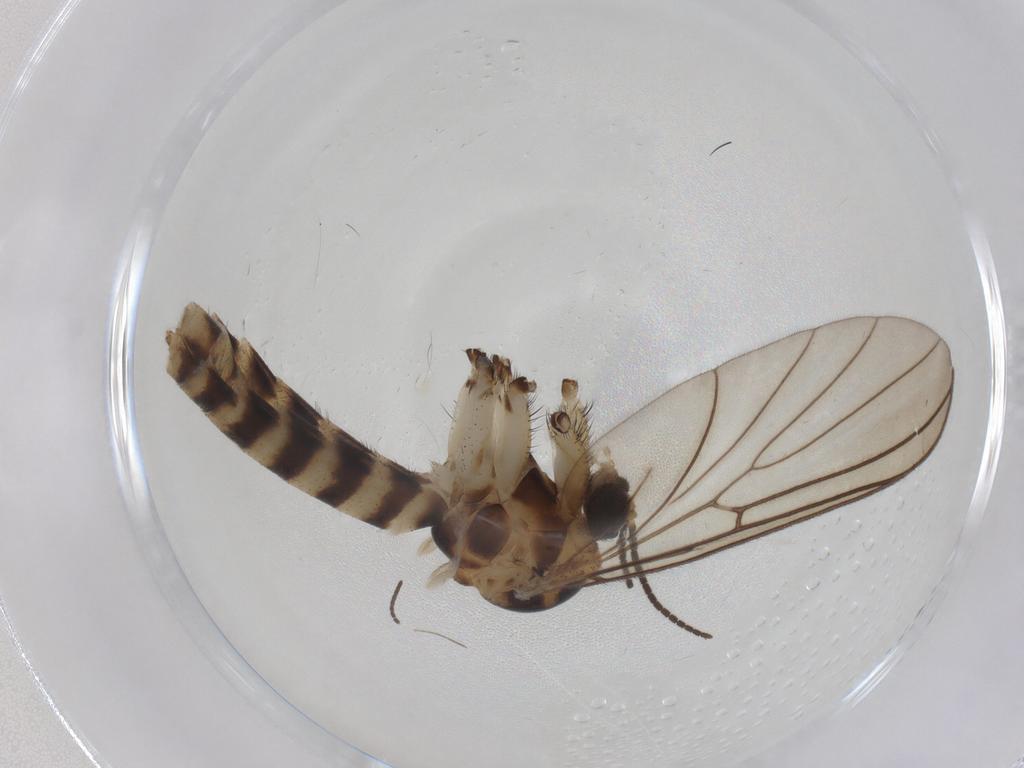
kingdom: Animalia
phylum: Arthropoda
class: Insecta
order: Diptera
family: Mycetophilidae
